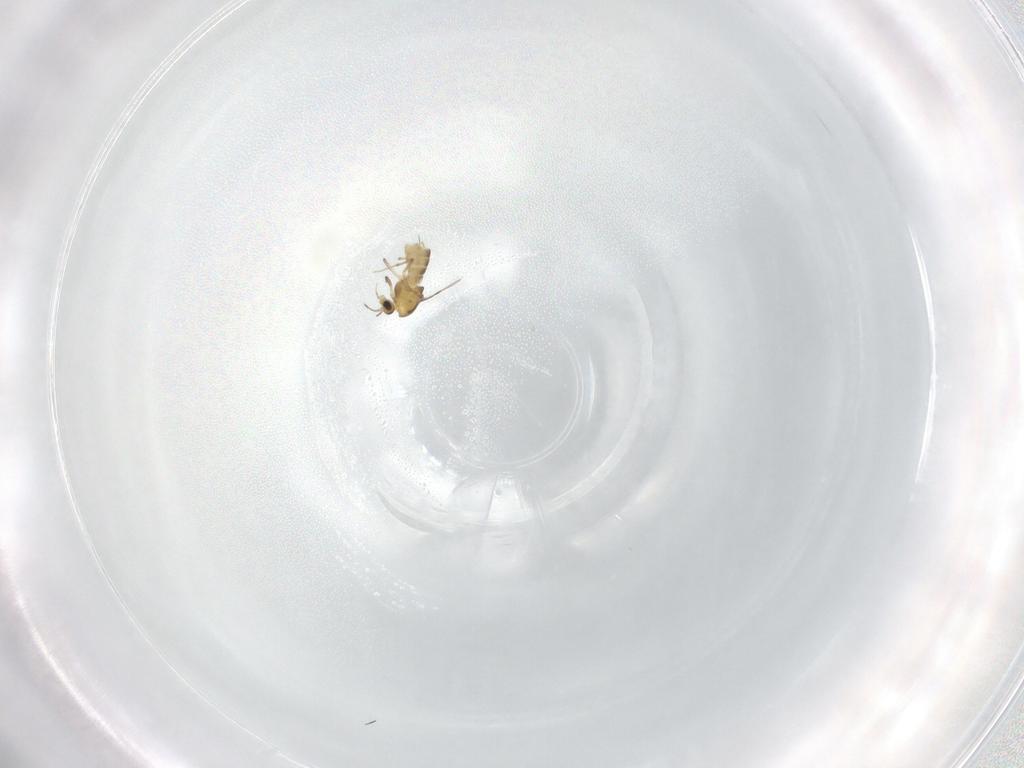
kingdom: Animalia
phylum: Arthropoda
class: Insecta
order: Diptera
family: Chironomidae
